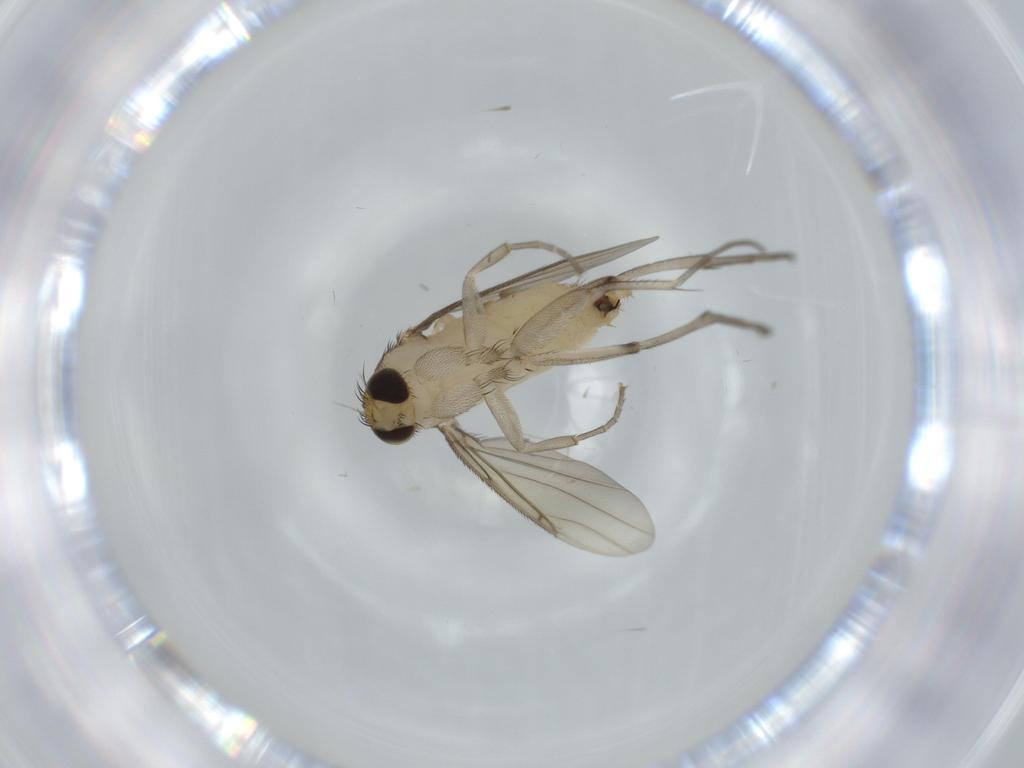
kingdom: Animalia
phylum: Arthropoda
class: Insecta
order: Diptera
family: Phoridae
